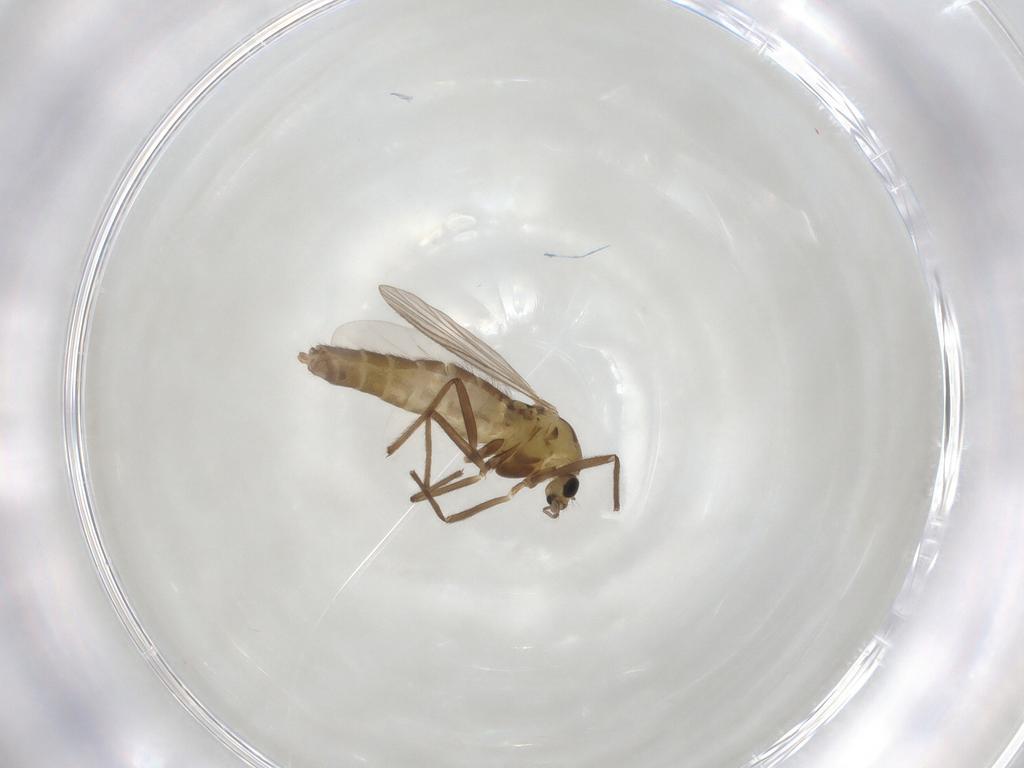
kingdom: Animalia
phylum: Arthropoda
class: Insecta
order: Diptera
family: Chironomidae
